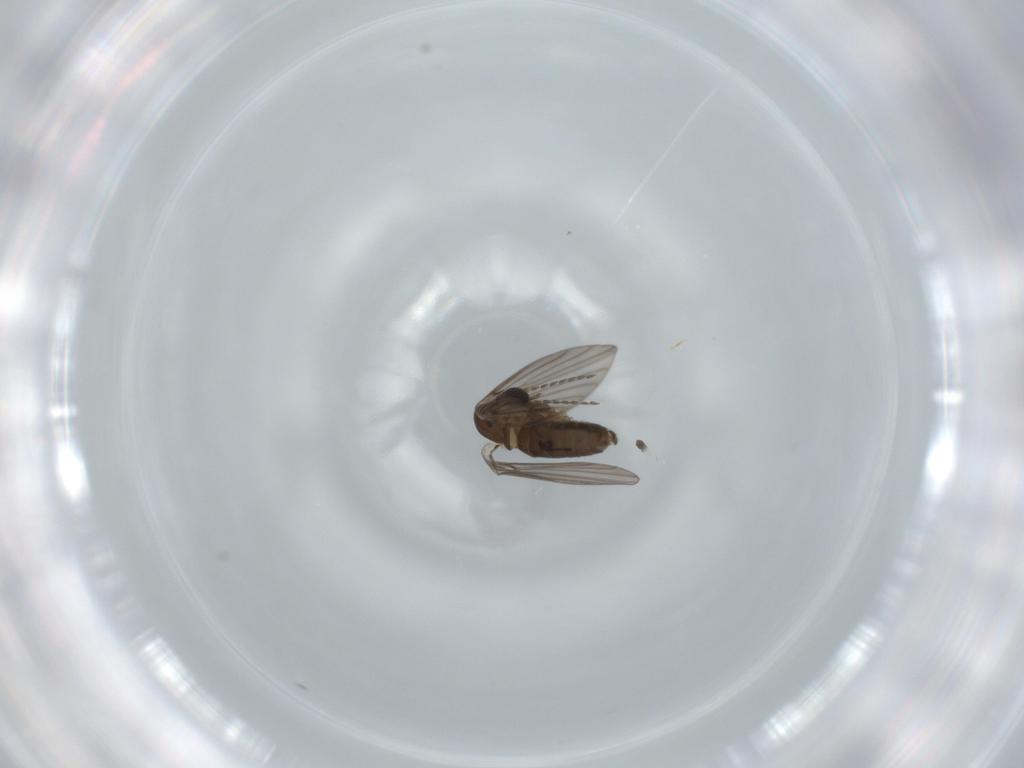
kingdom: Animalia
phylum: Arthropoda
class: Insecta
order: Diptera
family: Psychodidae
